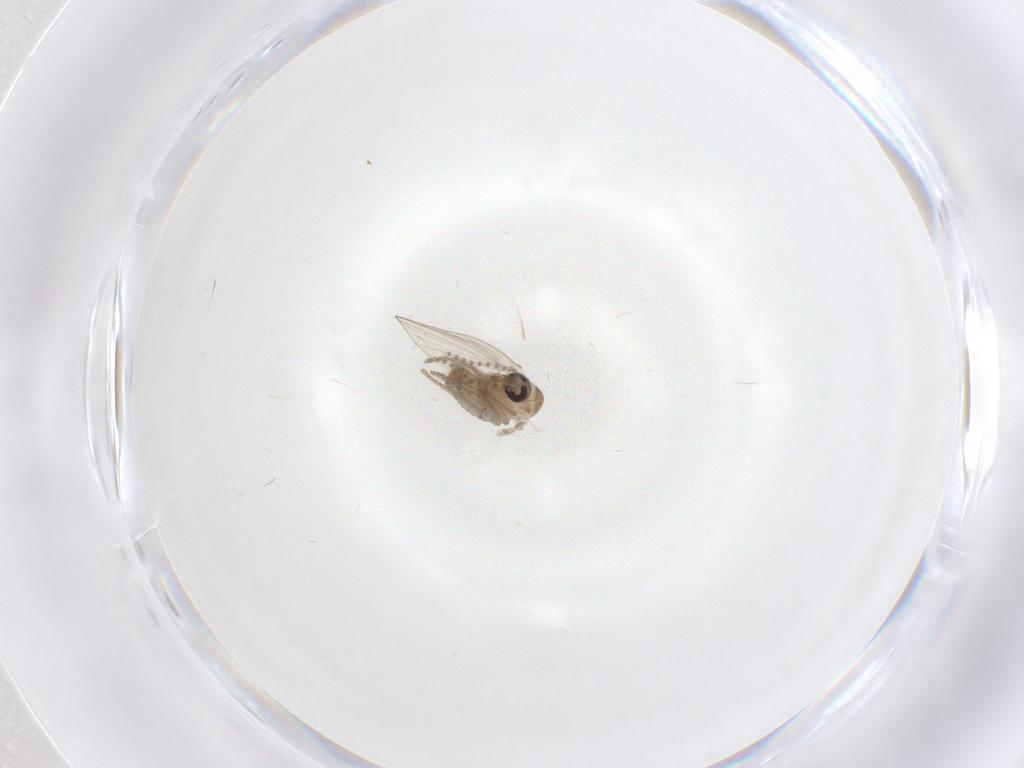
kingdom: Animalia
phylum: Arthropoda
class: Insecta
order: Diptera
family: Psychodidae
